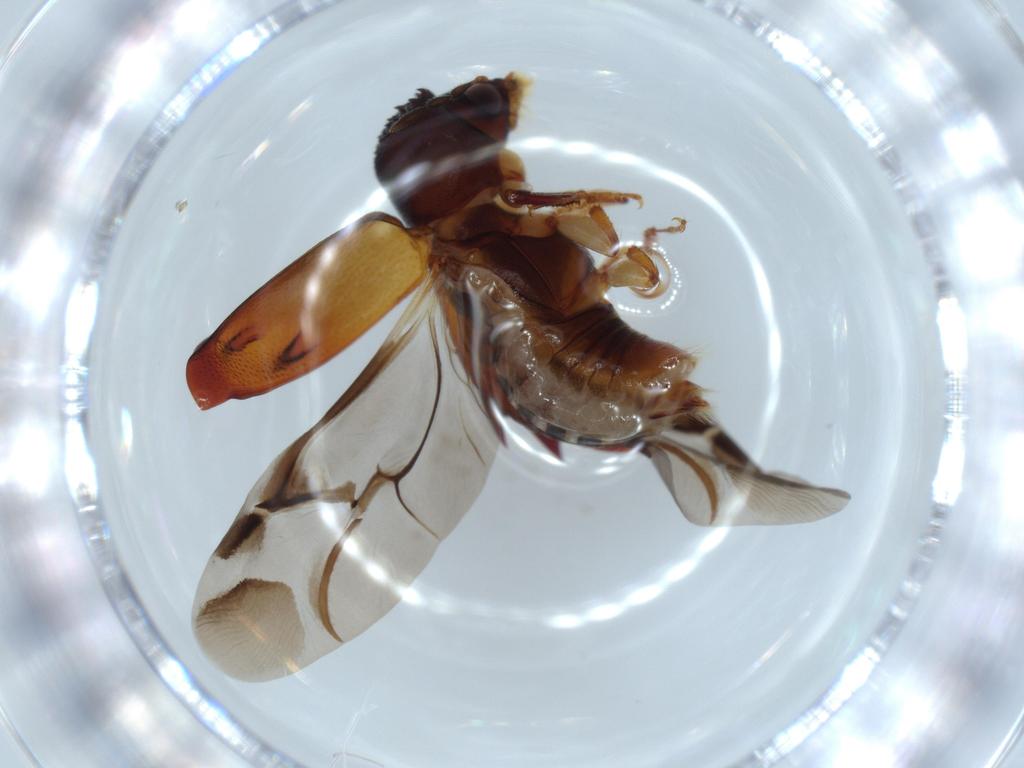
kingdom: Animalia
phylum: Arthropoda
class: Insecta
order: Coleoptera
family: Bostrichidae
